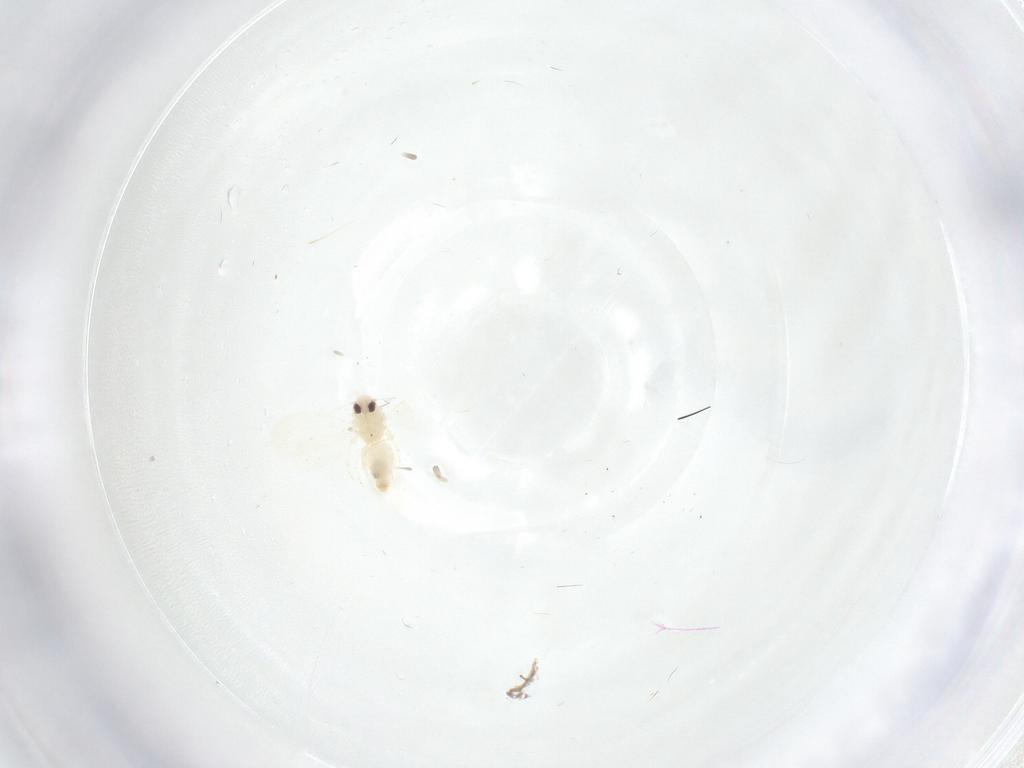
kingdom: Animalia
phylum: Arthropoda
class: Insecta
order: Hemiptera
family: Cicadellidae
